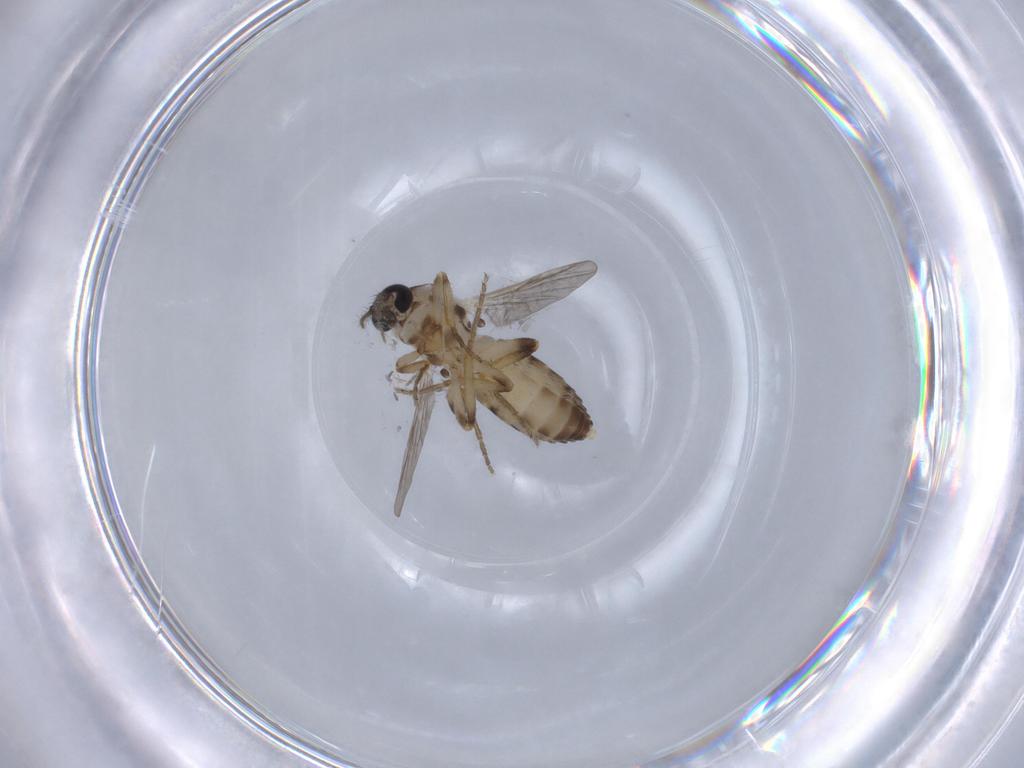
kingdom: Animalia
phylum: Arthropoda
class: Insecta
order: Diptera
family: Ceratopogonidae
